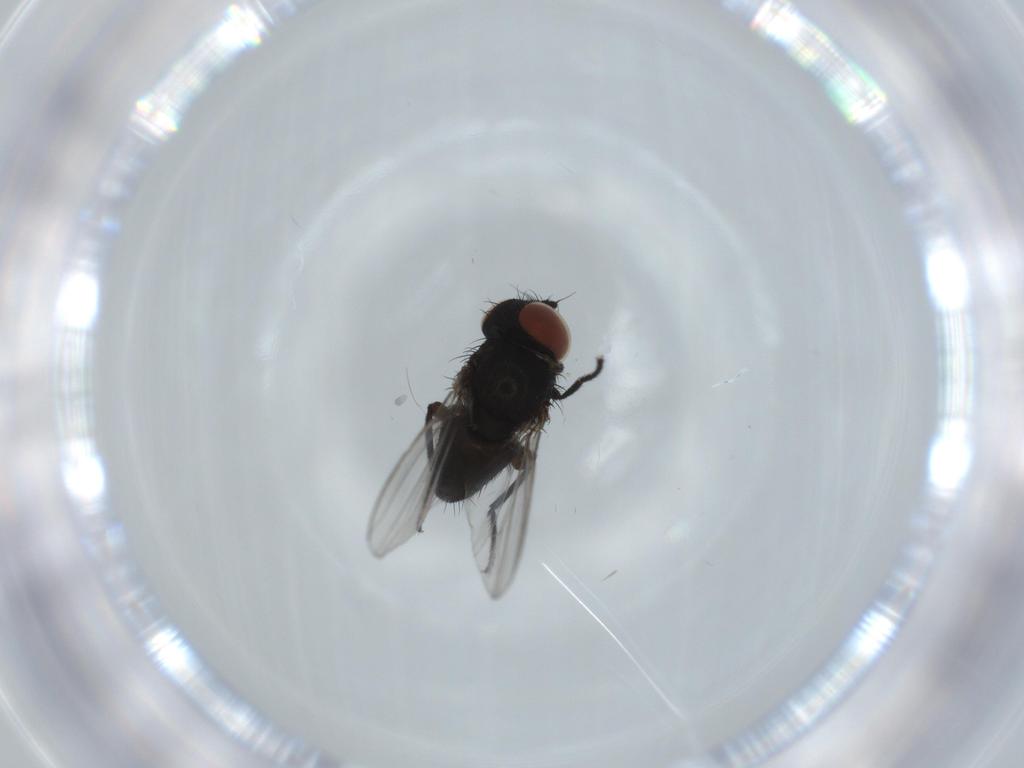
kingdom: Animalia
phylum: Arthropoda
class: Insecta
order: Diptera
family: Milichiidae
